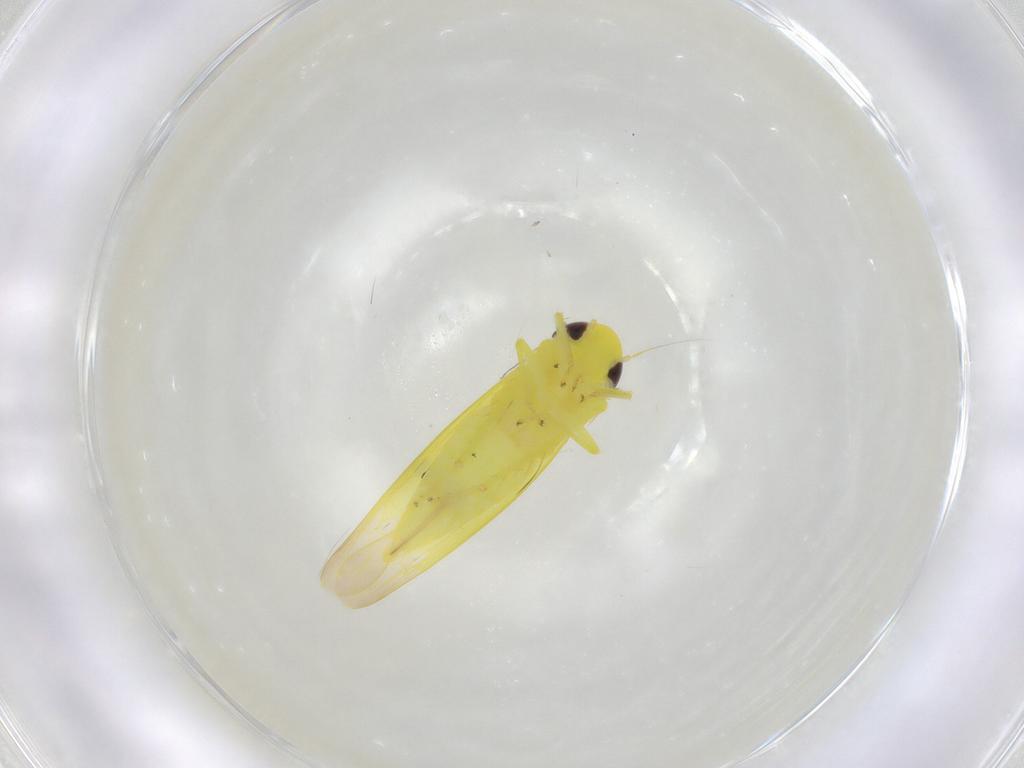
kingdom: Animalia
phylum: Arthropoda
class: Insecta
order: Hemiptera
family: Cicadellidae
